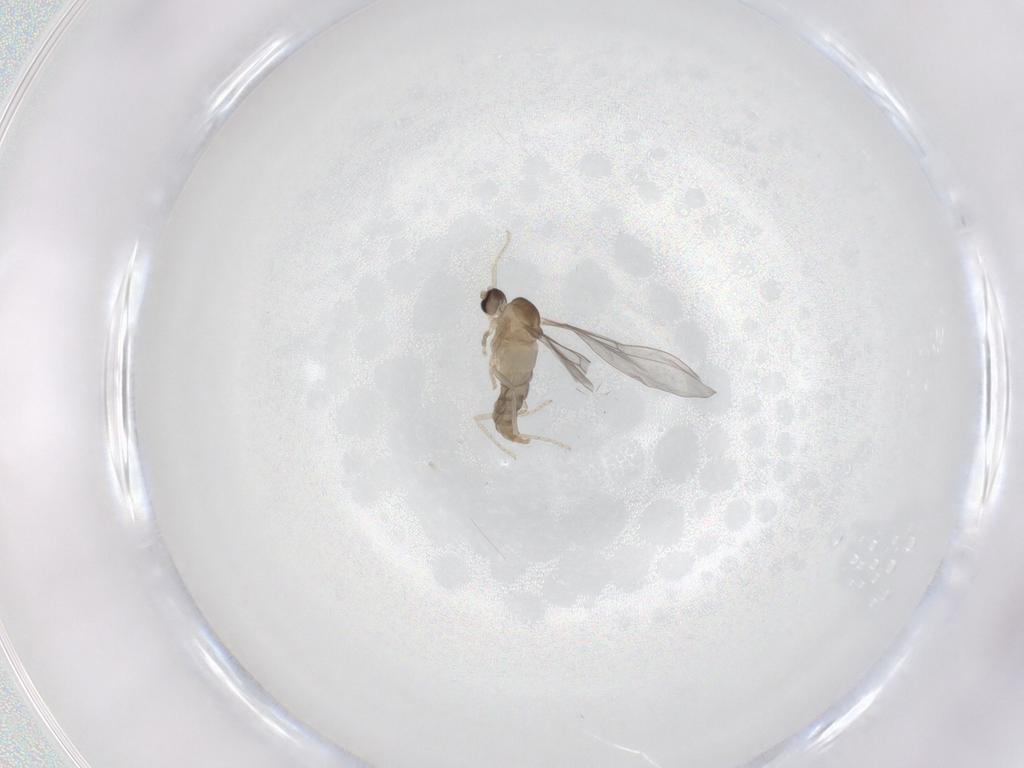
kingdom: Animalia
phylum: Arthropoda
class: Insecta
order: Diptera
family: Cecidomyiidae
